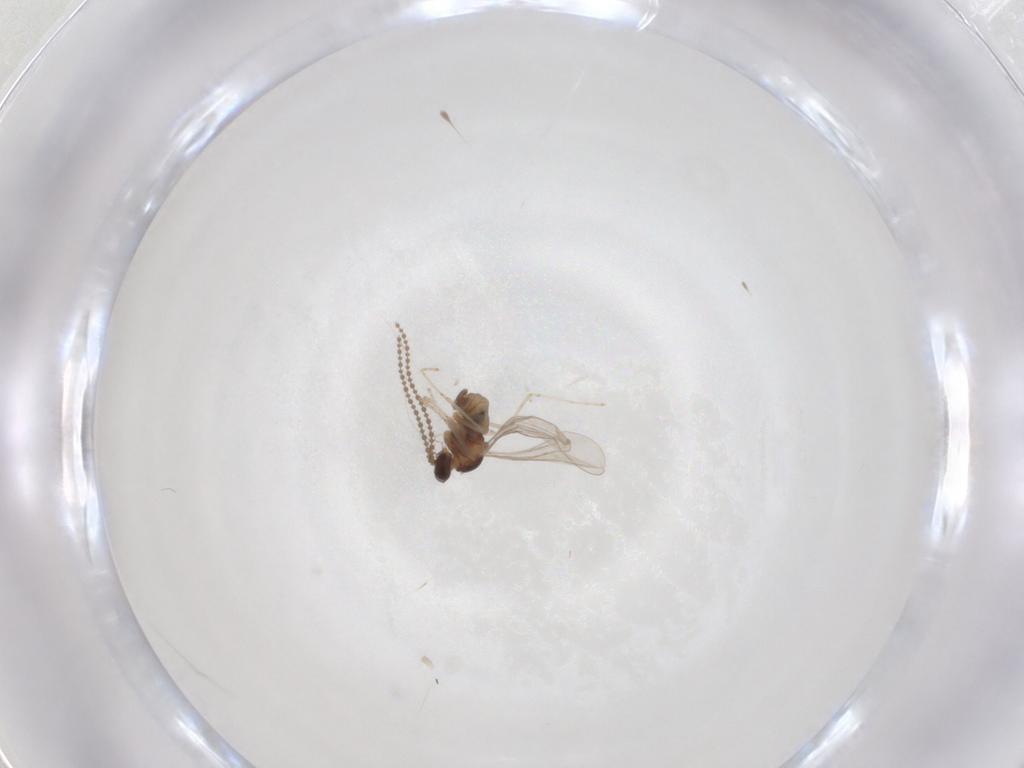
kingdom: Animalia
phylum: Arthropoda
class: Insecta
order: Diptera
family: Cecidomyiidae
